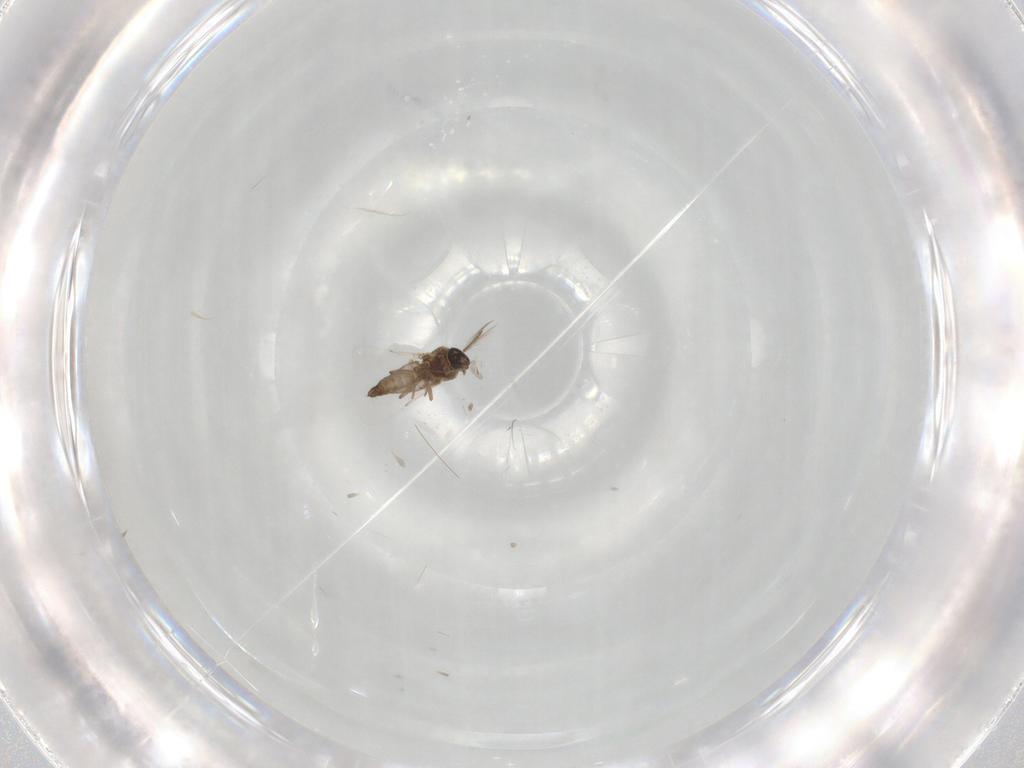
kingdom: Animalia
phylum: Arthropoda
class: Insecta
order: Diptera
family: Ceratopogonidae
